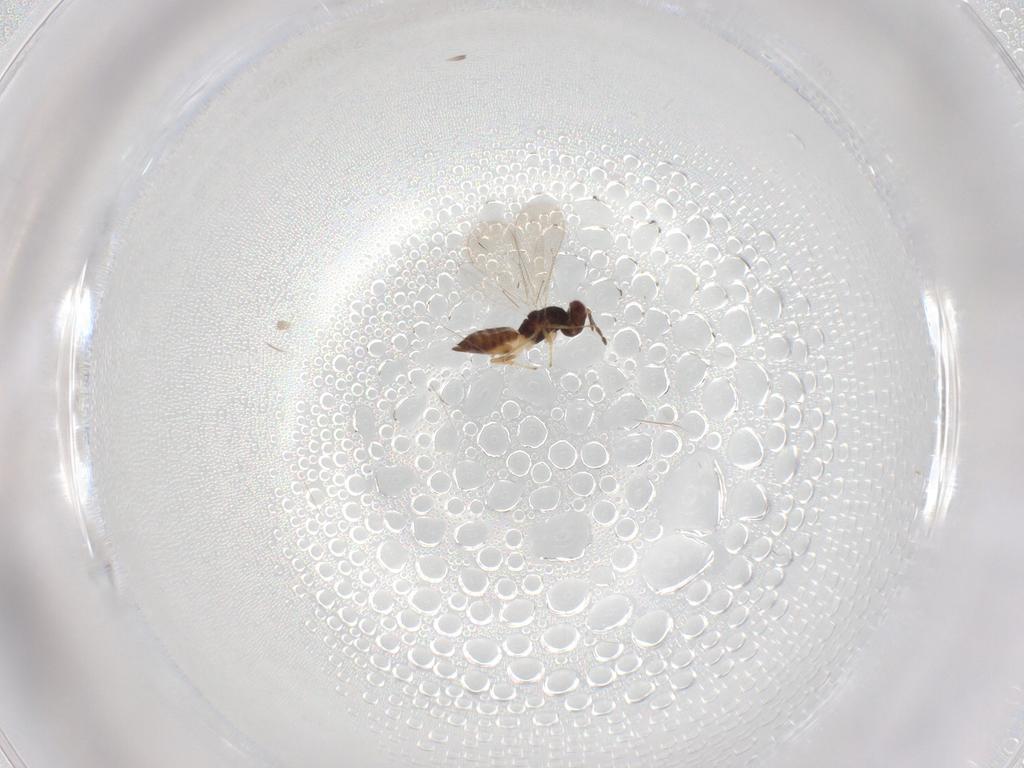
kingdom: Animalia
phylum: Arthropoda
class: Insecta
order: Hymenoptera
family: Eulophidae
